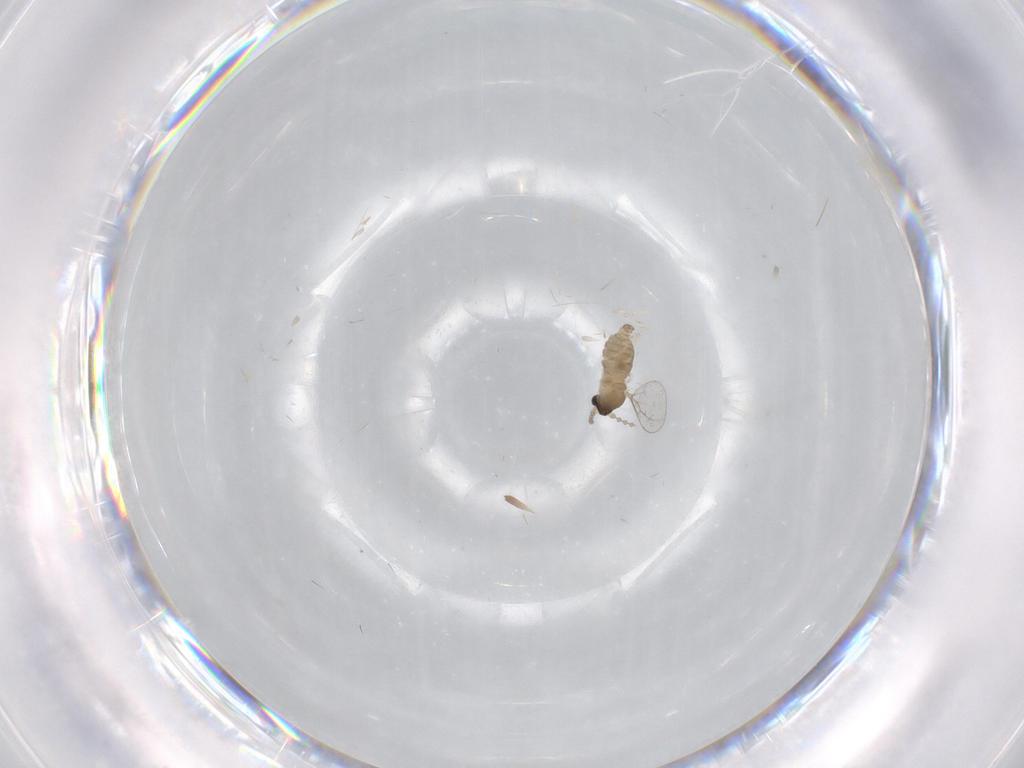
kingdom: Animalia
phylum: Arthropoda
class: Insecta
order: Diptera
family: Cecidomyiidae
